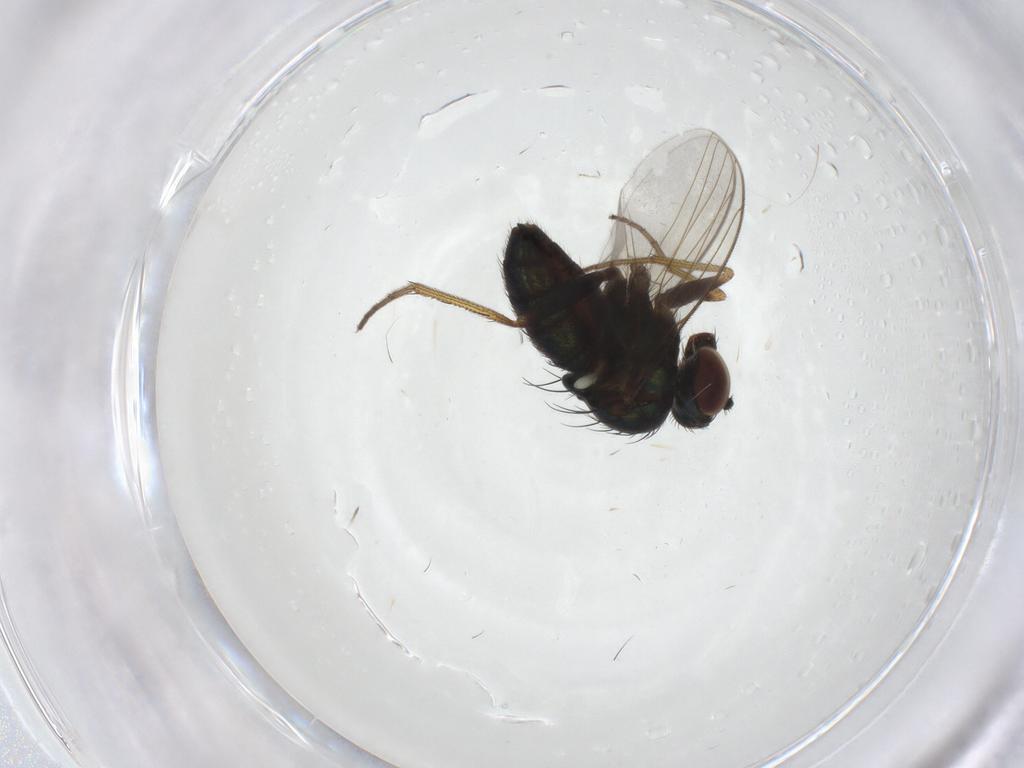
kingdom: Animalia
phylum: Arthropoda
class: Insecta
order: Diptera
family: Dolichopodidae
